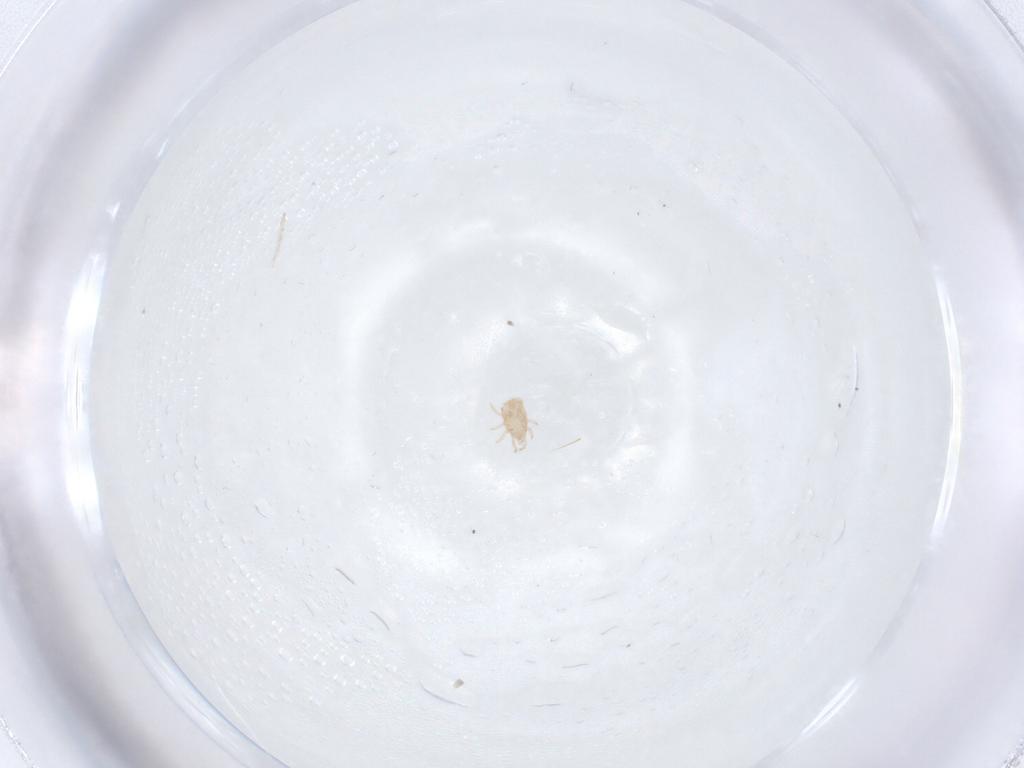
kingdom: Animalia
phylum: Arthropoda
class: Arachnida
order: Mesostigmata
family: Ascidae
